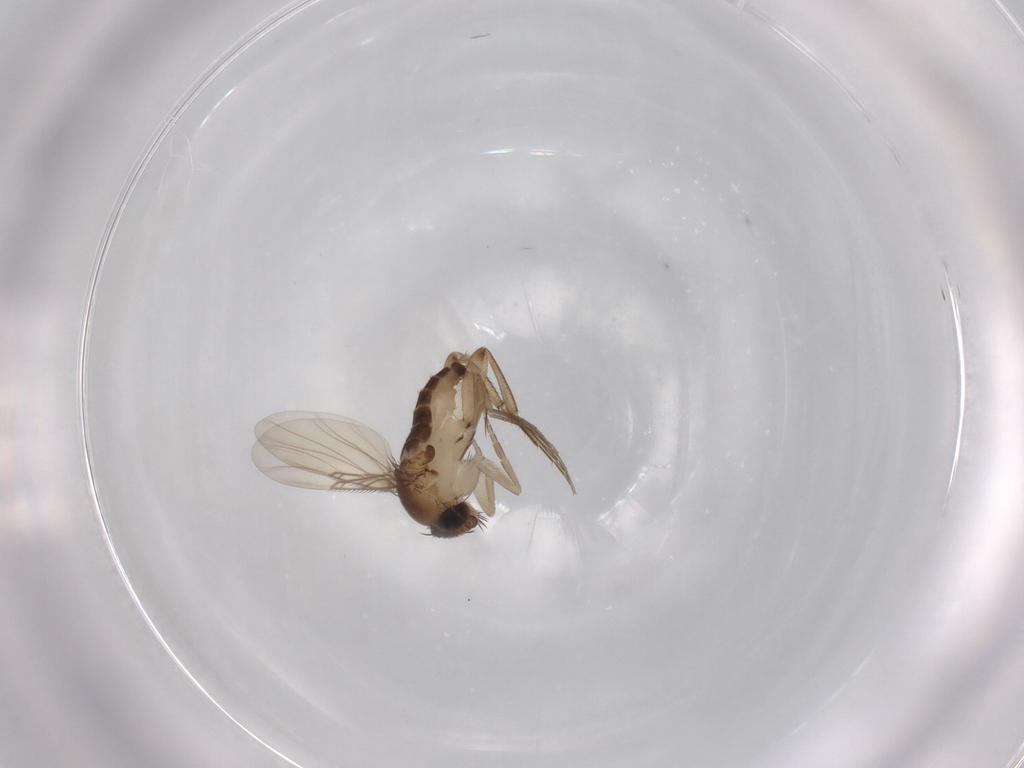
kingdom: Animalia
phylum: Arthropoda
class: Insecta
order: Diptera
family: Phoridae
